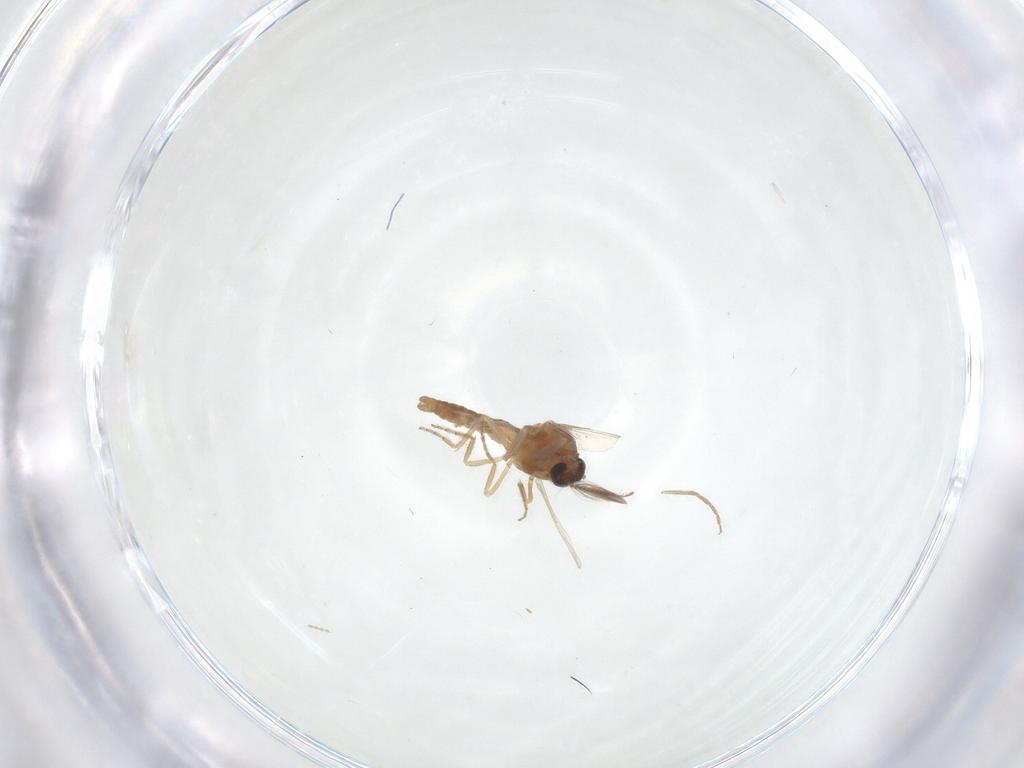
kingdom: Animalia
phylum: Arthropoda
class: Insecta
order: Diptera
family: Ceratopogonidae
